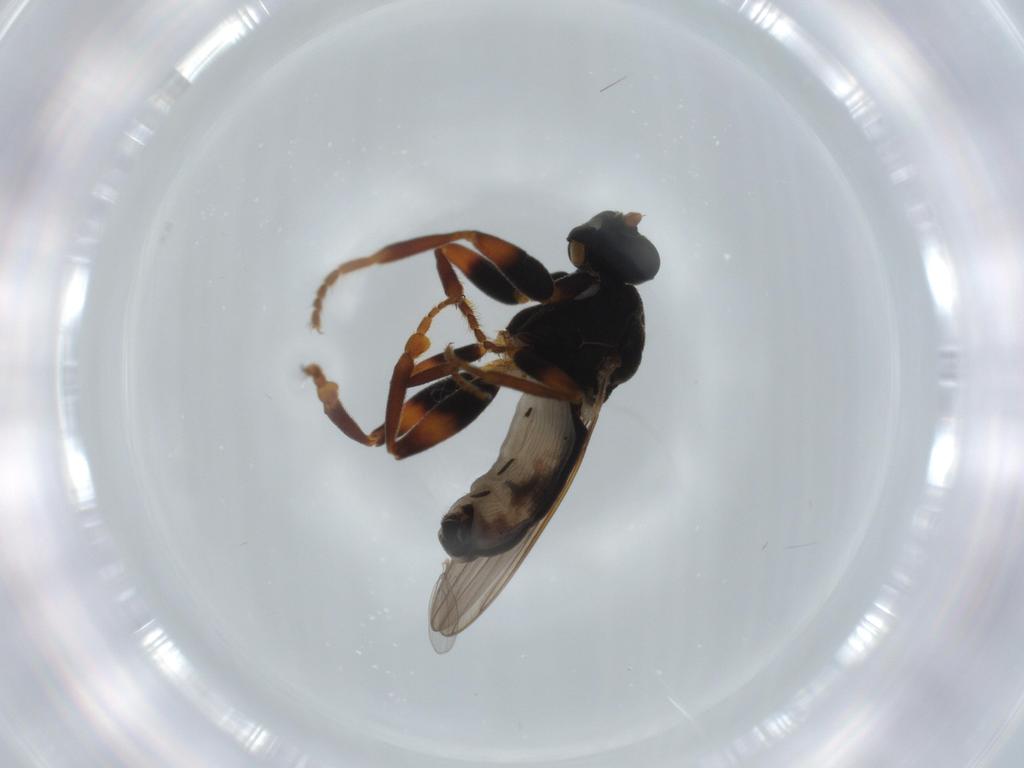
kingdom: Animalia
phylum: Arthropoda
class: Insecta
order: Diptera
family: Sphaeroceridae
